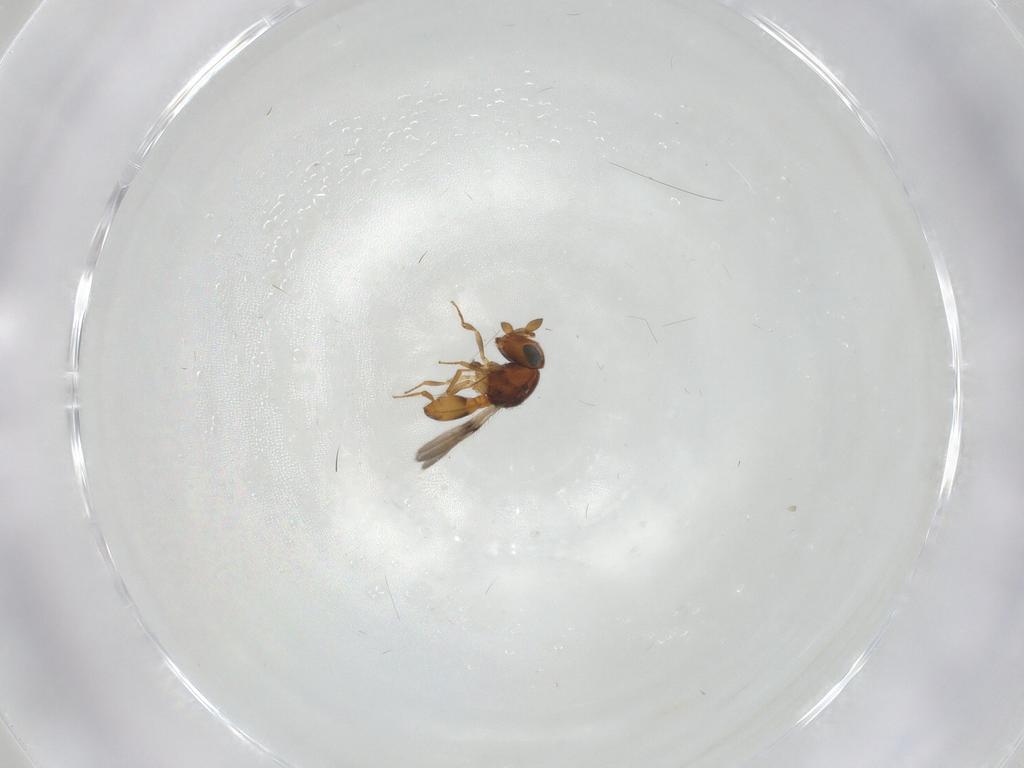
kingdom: Animalia
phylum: Arthropoda
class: Insecta
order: Hymenoptera
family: Scelionidae
